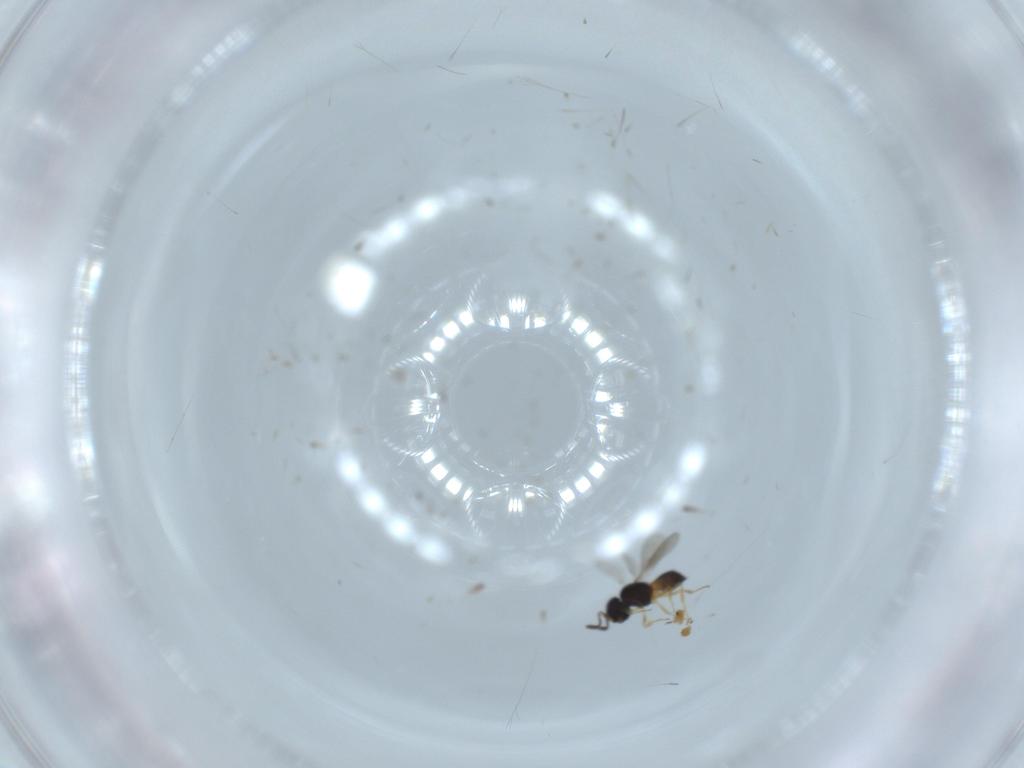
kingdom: Animalia
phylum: Arthropoda
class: Insecta
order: Hymenoptera
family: Scelionidae
